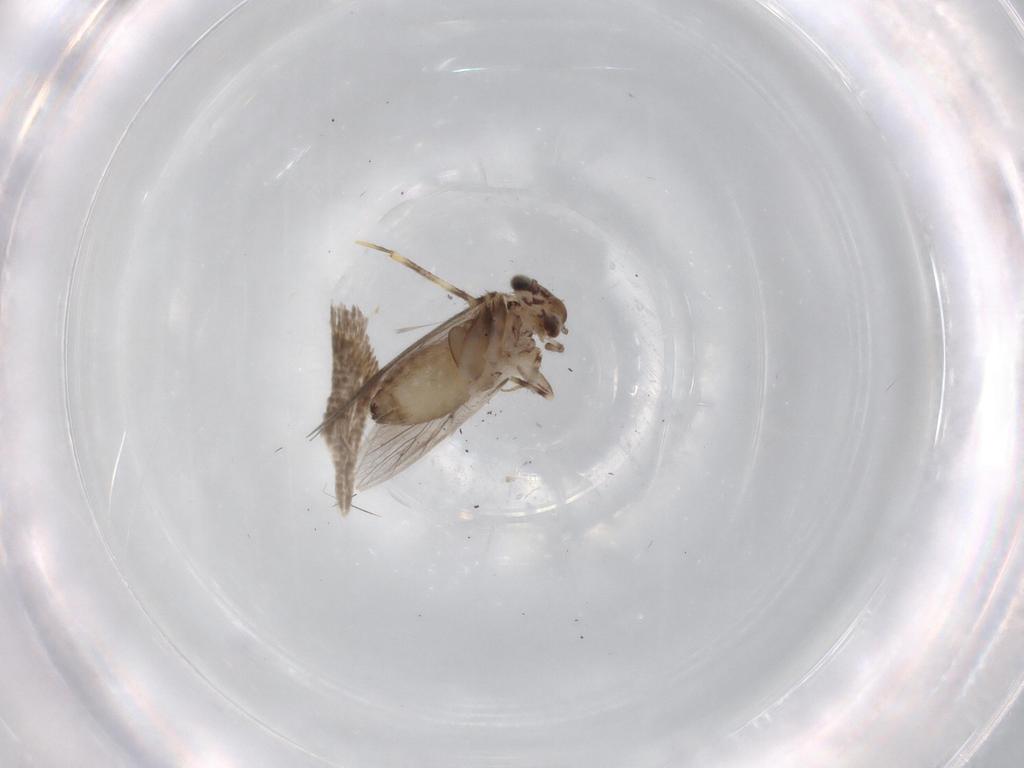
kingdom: Animalia
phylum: Arthropoda
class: Insecta
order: Psocodea
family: Lepidopsocidae
